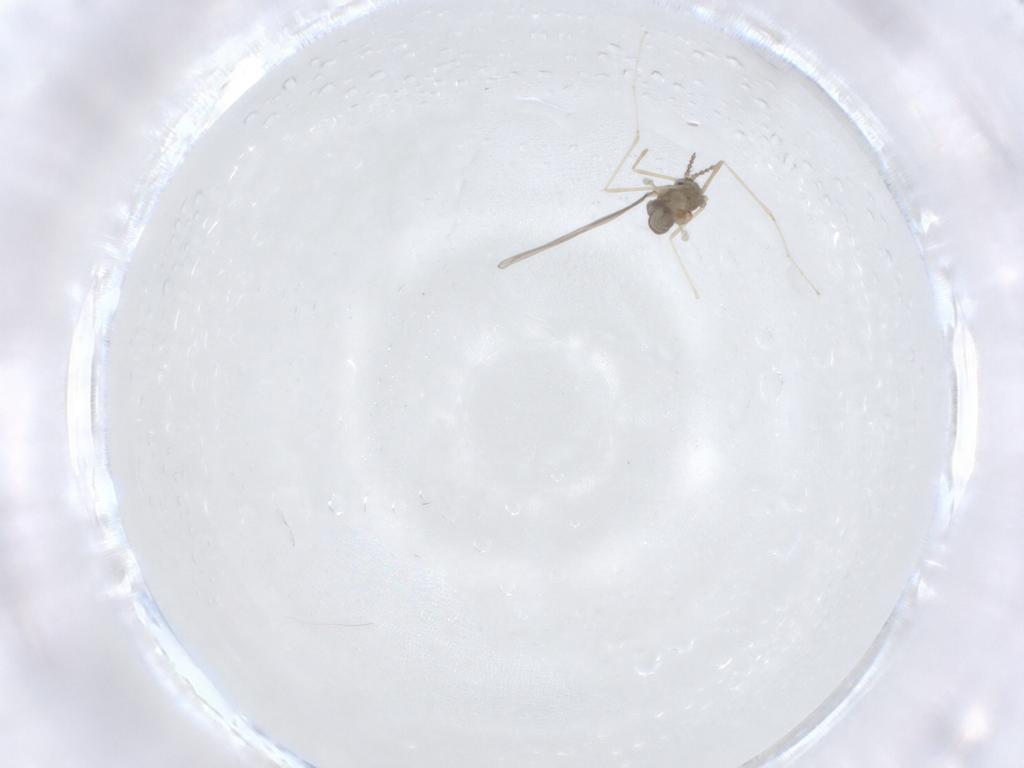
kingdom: Animalia
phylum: Arthropoda
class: Insecta
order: Diptera
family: Cecidomyiidae
